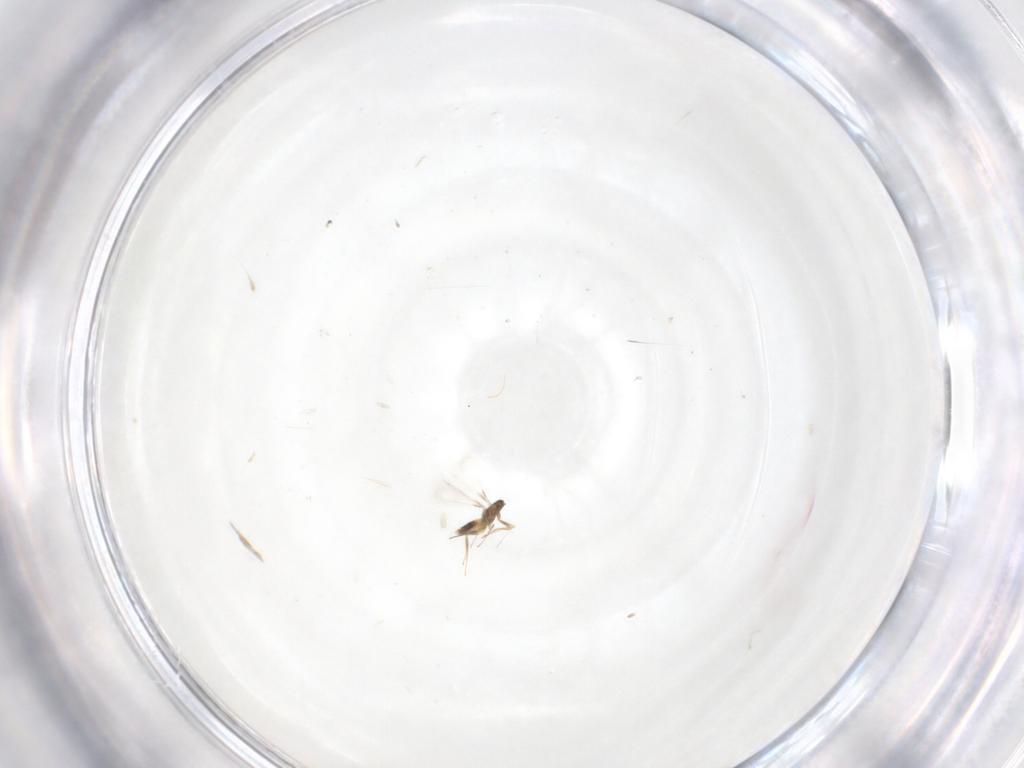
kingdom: Animalia
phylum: Arthropoda
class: Insecta
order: Hymenoptera
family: Mymaridae
